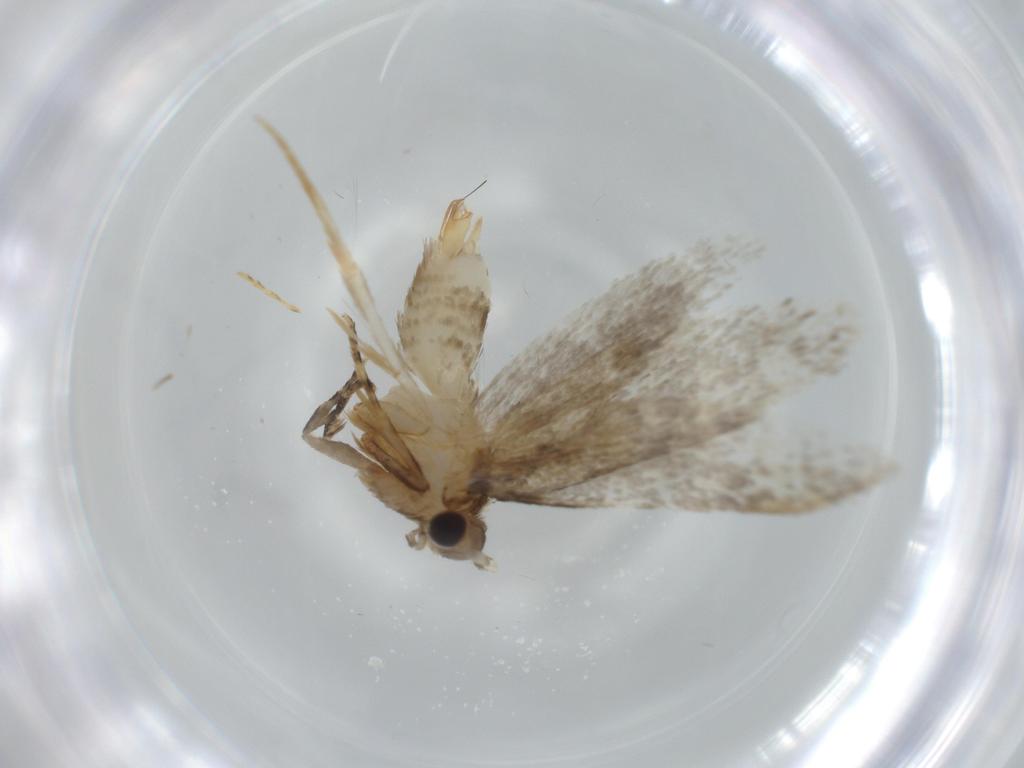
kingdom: Animalia
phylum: Arthropoda
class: Insecta
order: Lepidoptera
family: Tineidae
